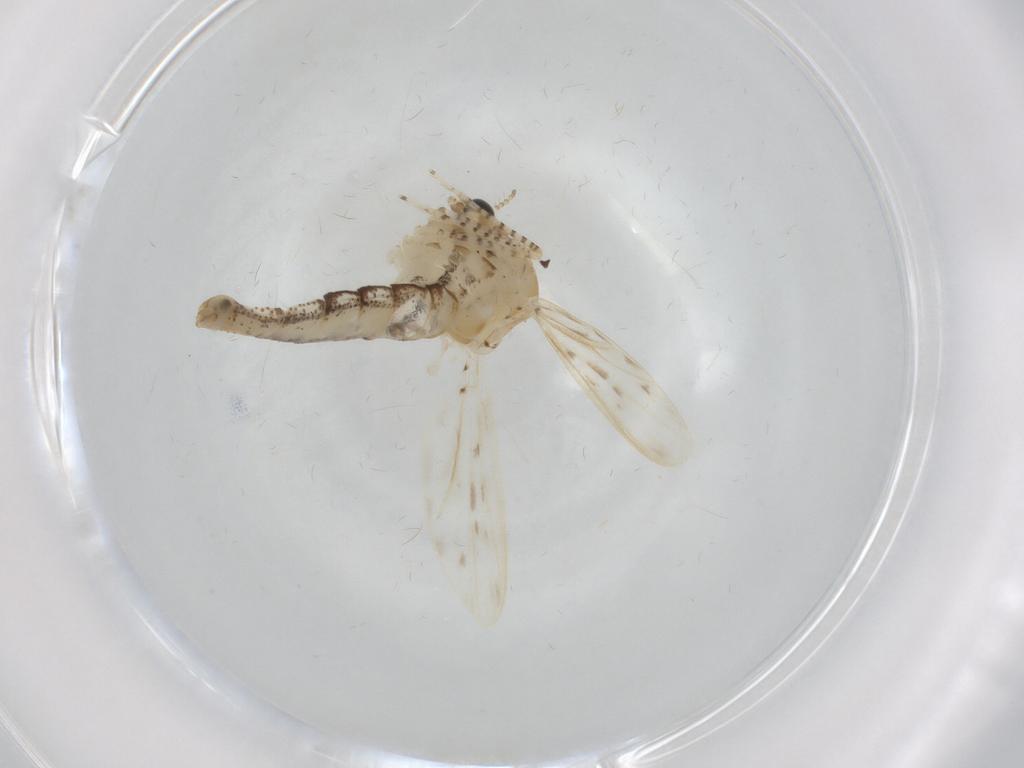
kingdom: Animalia
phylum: Arthropoda
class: Insecta
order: Diptera
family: Chaoboridae
